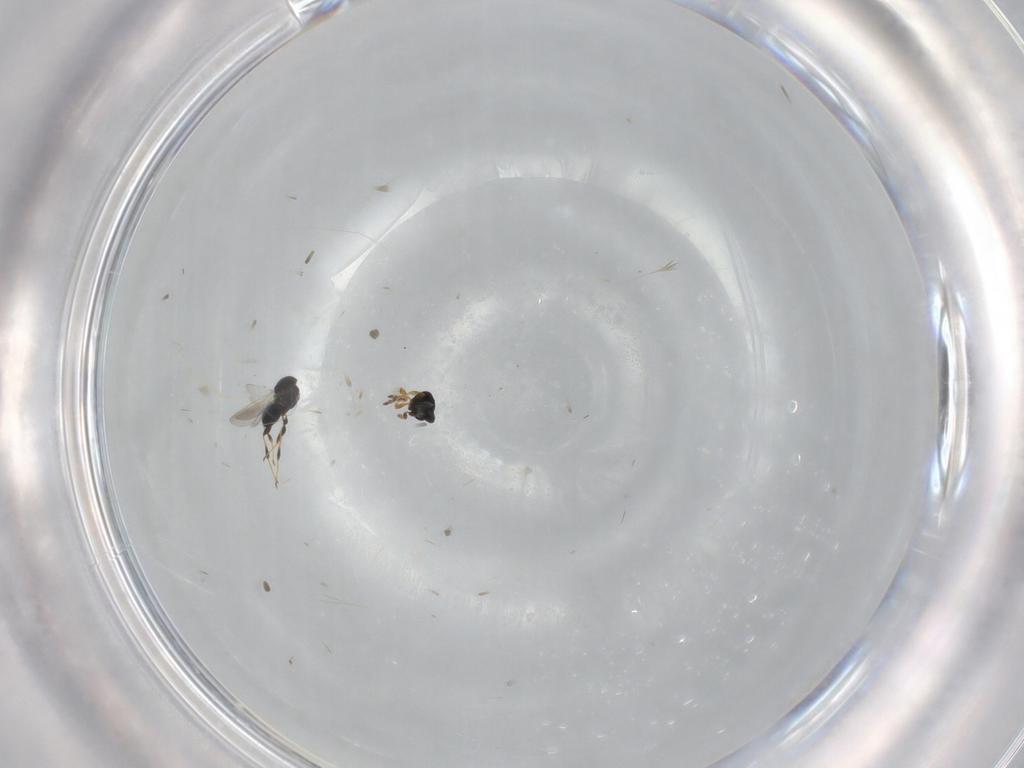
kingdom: Animalia
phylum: Arthropoda
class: Insecta
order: Hymenoptera
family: Platygastridae
